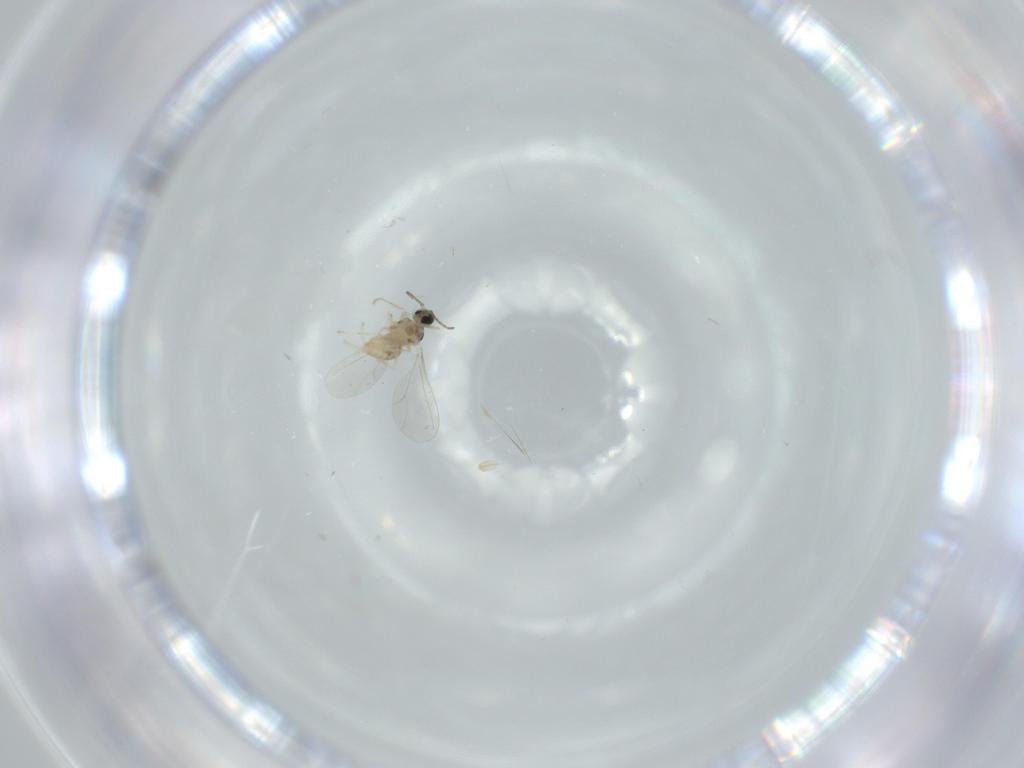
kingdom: Animalia
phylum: Arthropoda
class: Insecta
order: Diptera
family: Cecidomyiidae
